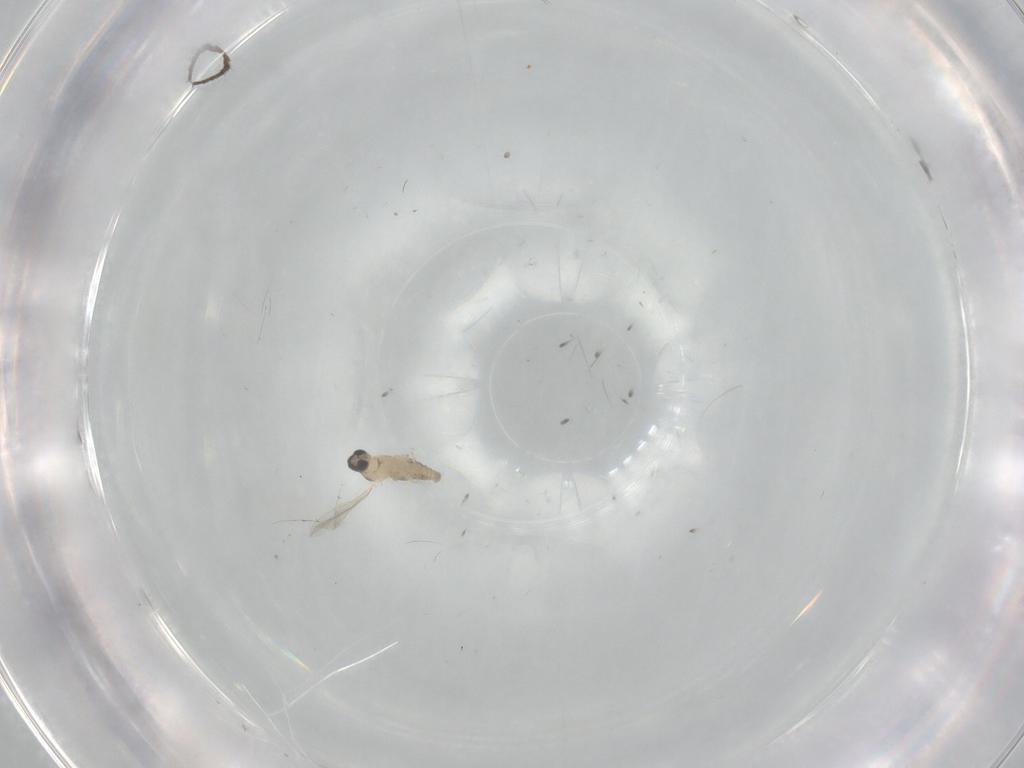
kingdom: Animalia
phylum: Arthropoda
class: Insecta
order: Diptera
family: Cecidomyiidae
